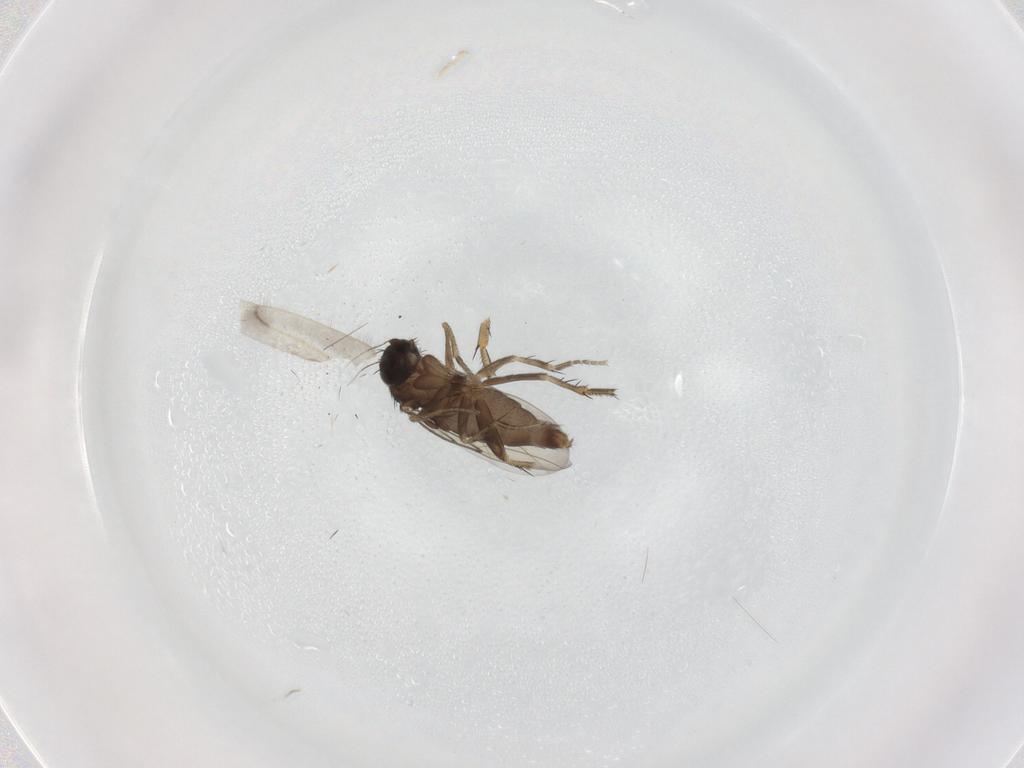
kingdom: Animalia
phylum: Arthropoda
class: Insecta
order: Diptera
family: Phoridae
